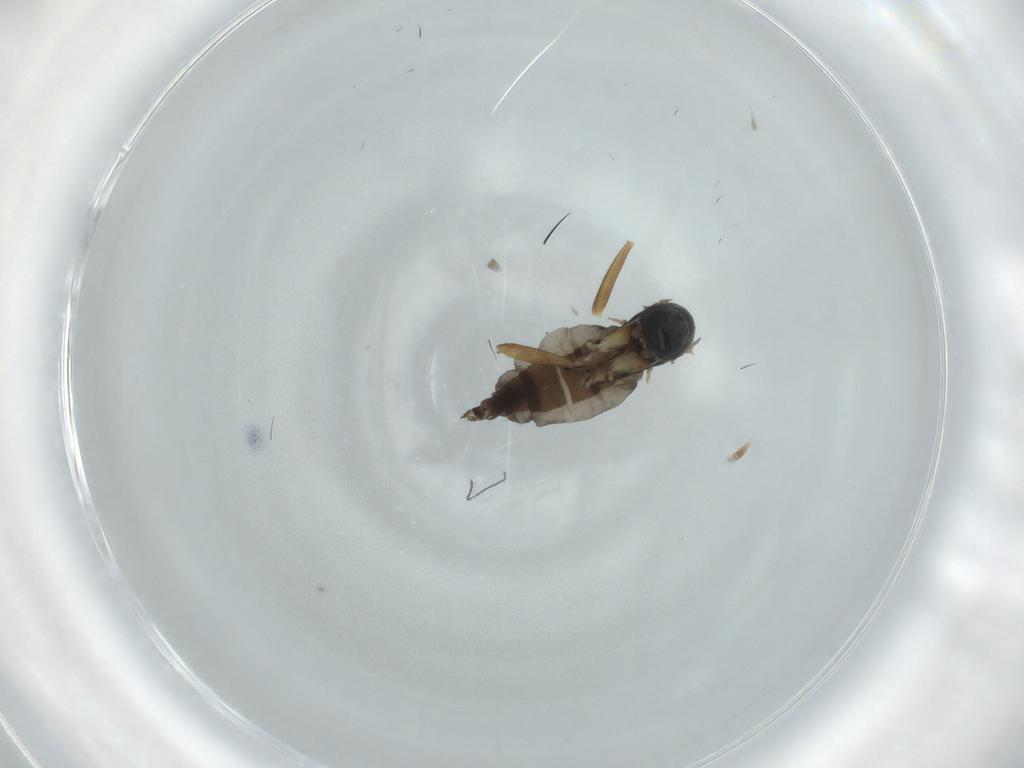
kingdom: Animalia
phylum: Arthropoda
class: Insecta
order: Diptera
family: Sciaridae
